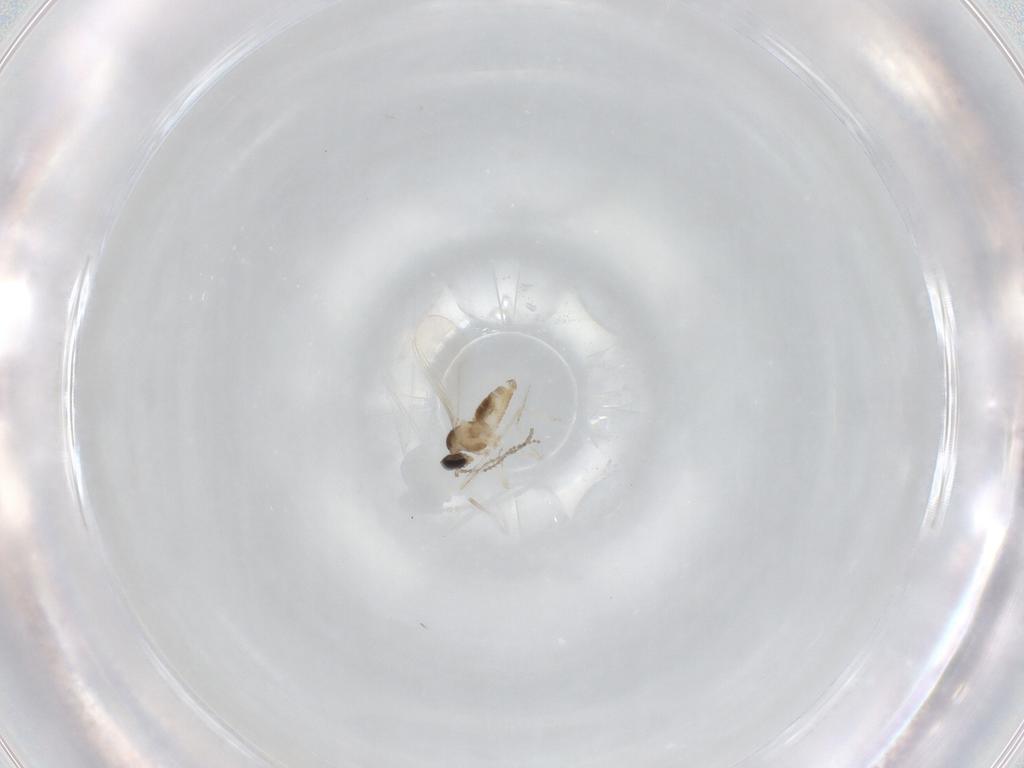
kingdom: Animalia
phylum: Arthropoda
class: Insecta
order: Diptera
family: Cecidomyiidae
